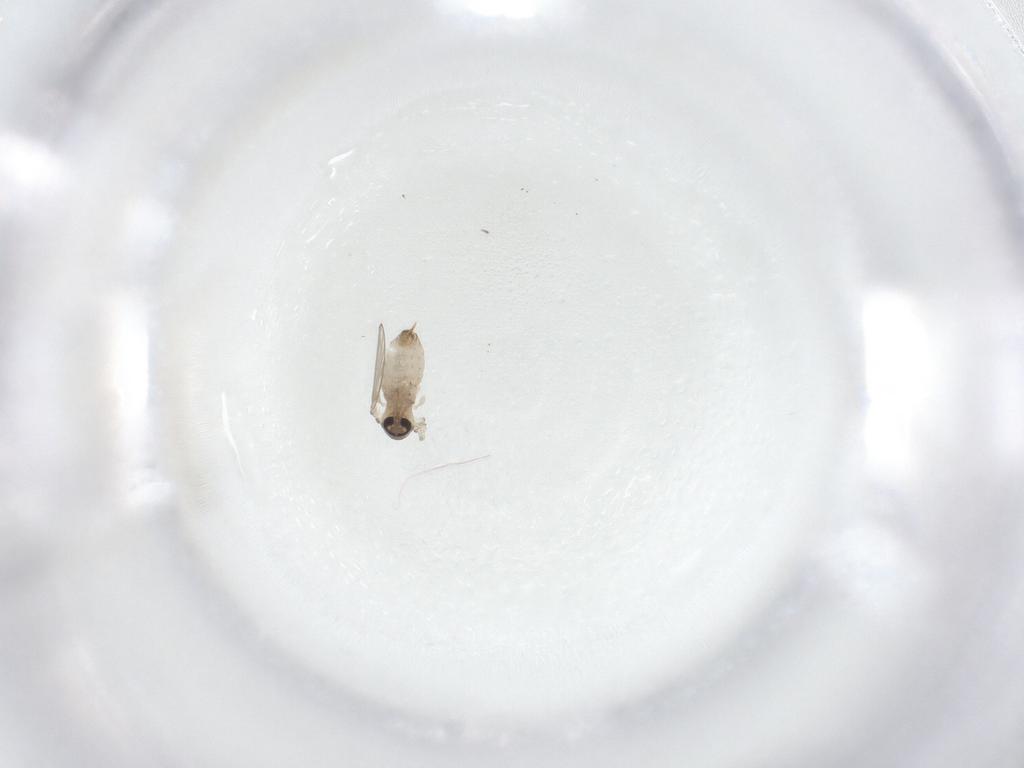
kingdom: Animalia
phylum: Arthropoda
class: Insecta
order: Diptera
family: Psychodidae
